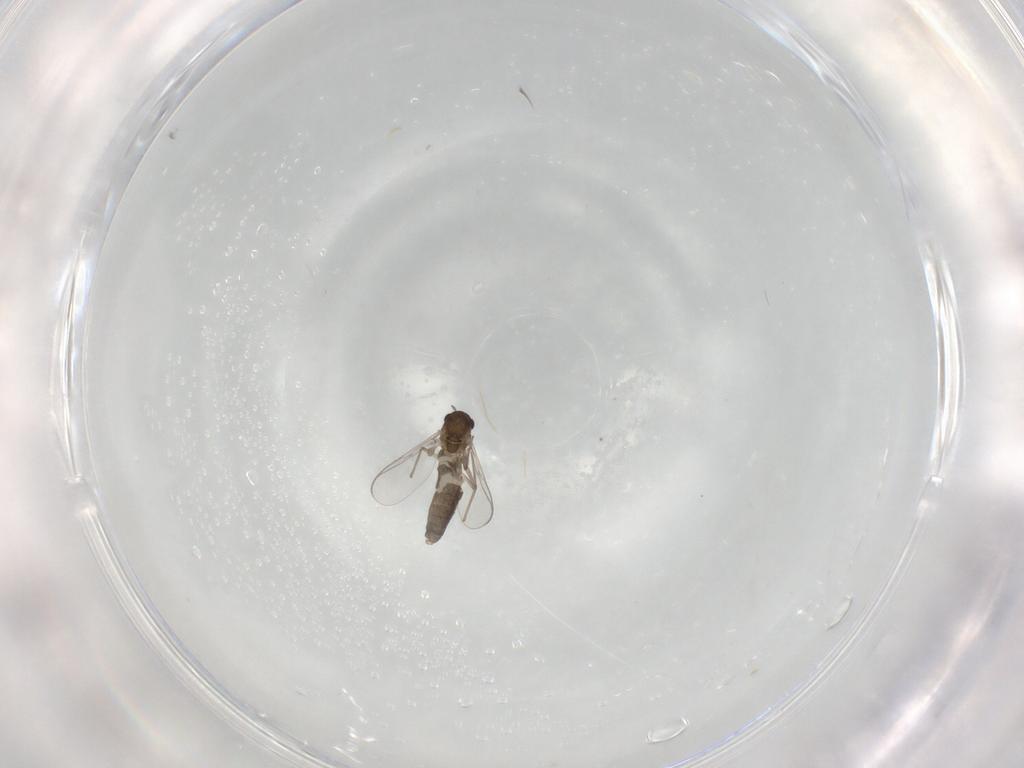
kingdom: Animalia
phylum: Arthropoda
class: Insecta
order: Diptera
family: Chironomidae
